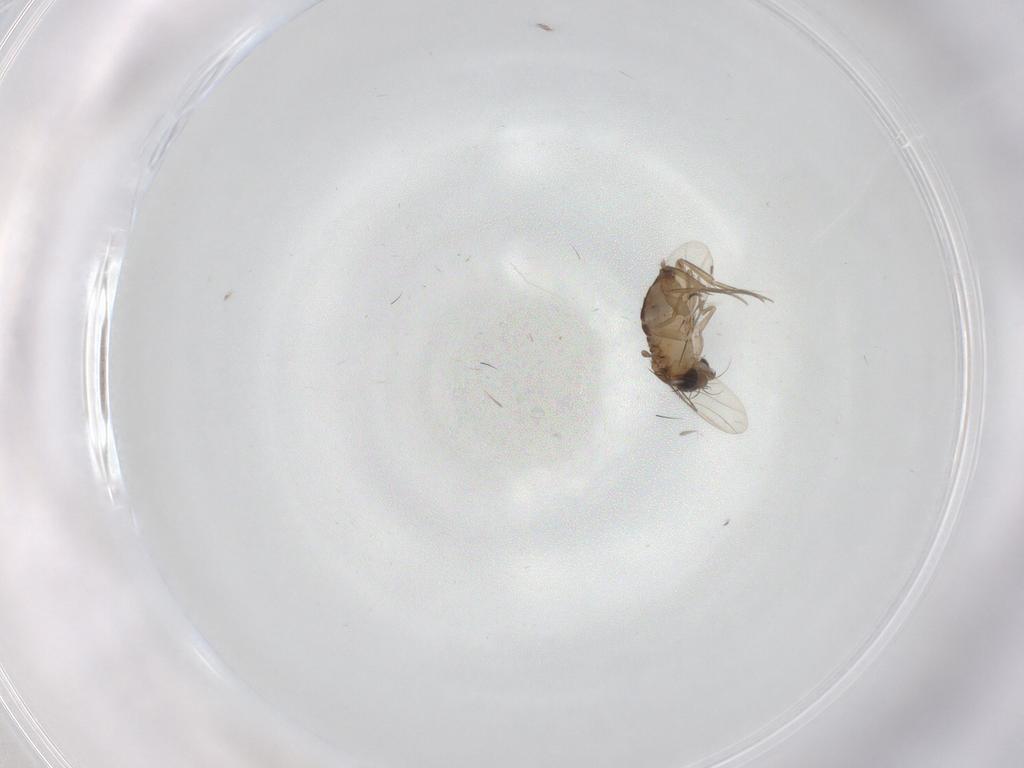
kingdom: Animalia
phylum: Arthropoda
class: Insecta
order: Diptera
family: Phoridae
